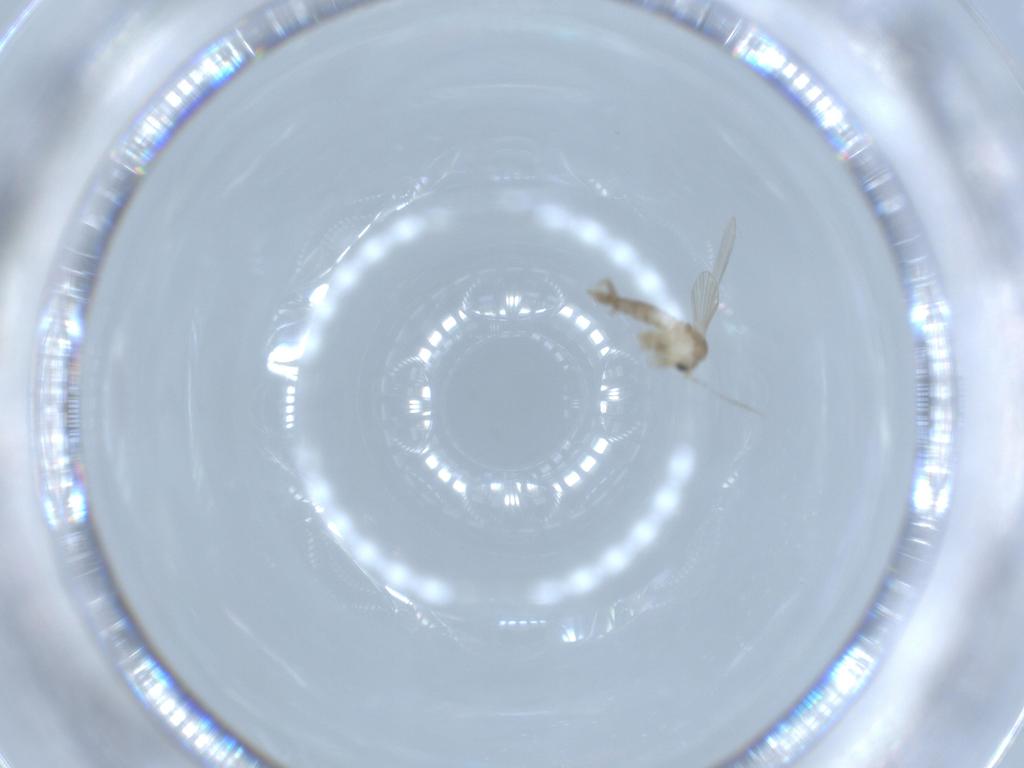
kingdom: Animalia
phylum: Arthropoda
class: Insecta
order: Diptera
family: Psychodidae
